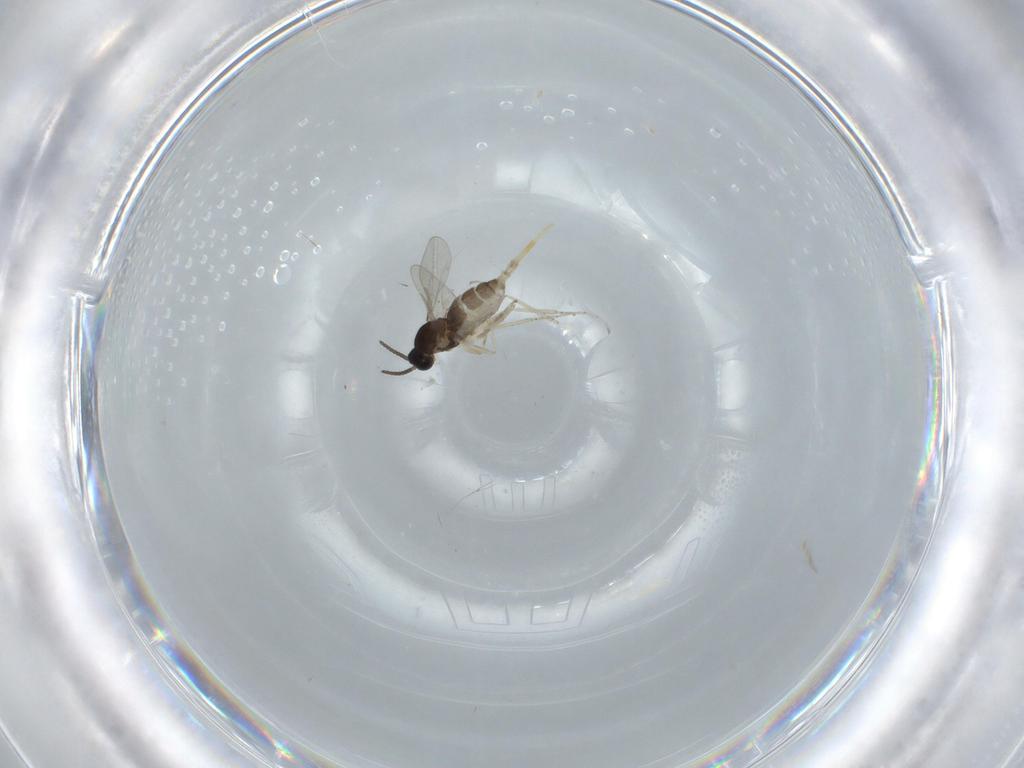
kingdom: Animalia
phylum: Arthropoda
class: Insecta
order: Diptera
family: Cecidomyiidae
